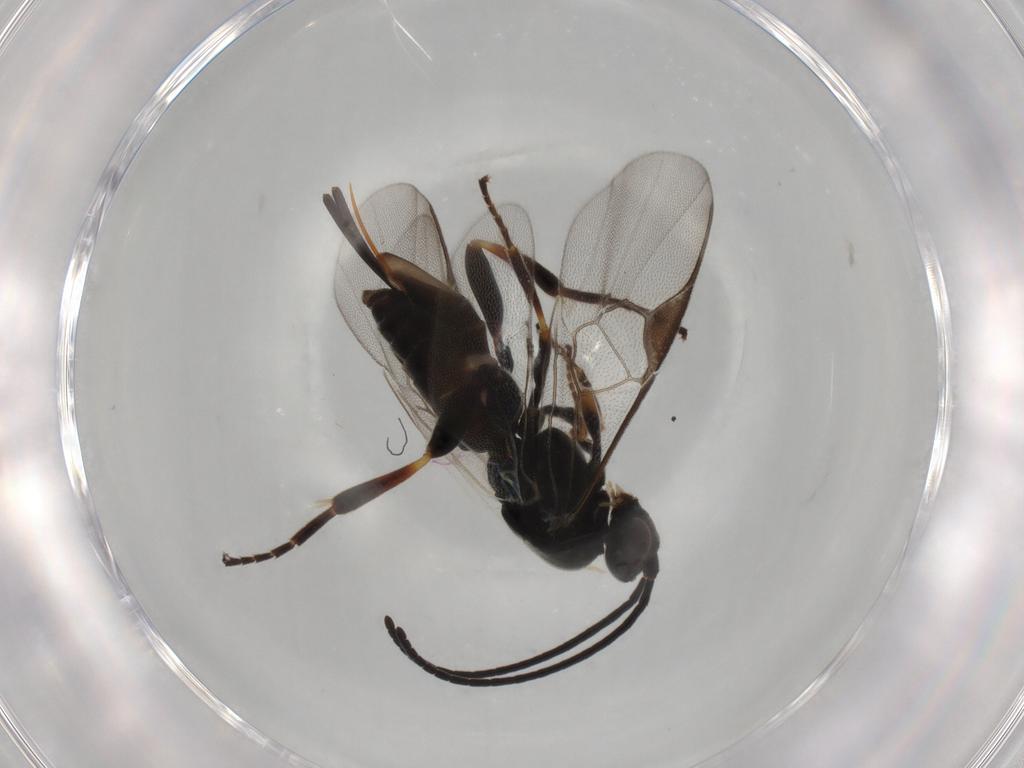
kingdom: Animalia
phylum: Arthropoda
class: Insecta
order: Hymenoptera
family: Braconidae
